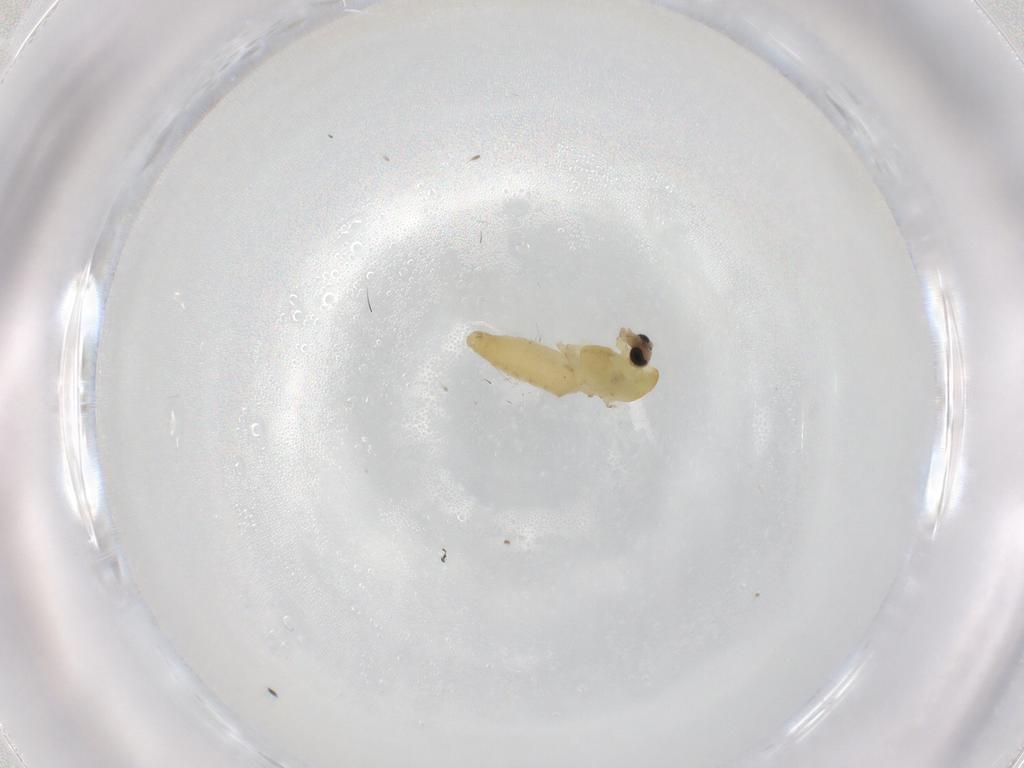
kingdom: Animalia
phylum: Arthropoda
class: Insecta
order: Diptera
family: Chironomidae
